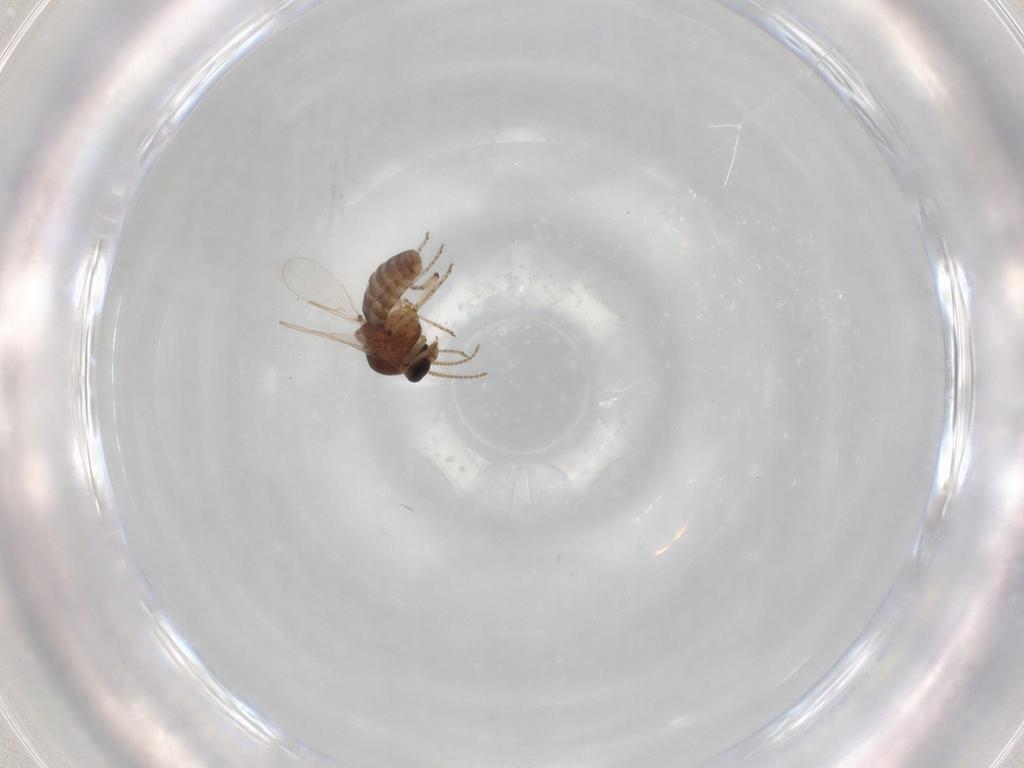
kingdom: Animalia
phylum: Arthropoda
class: Insecta
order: Diptera
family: Ceratopogonidae
